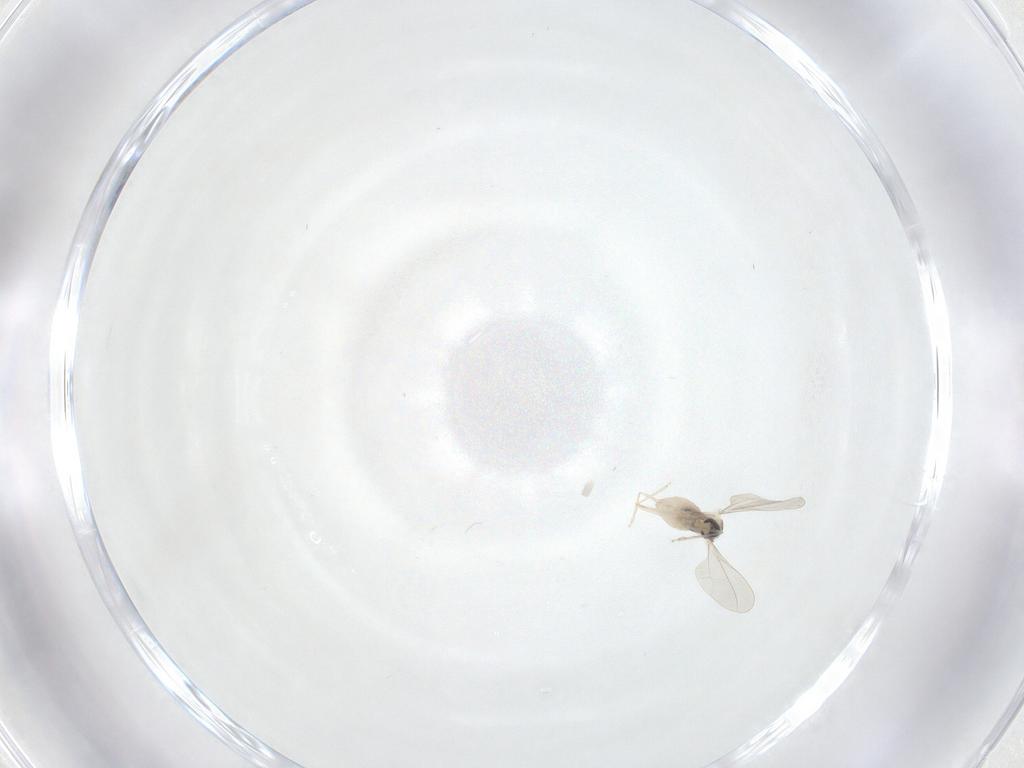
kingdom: Animalia
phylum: Arthropoda
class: Insecta
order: Diptera
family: Cecidomyiidae
